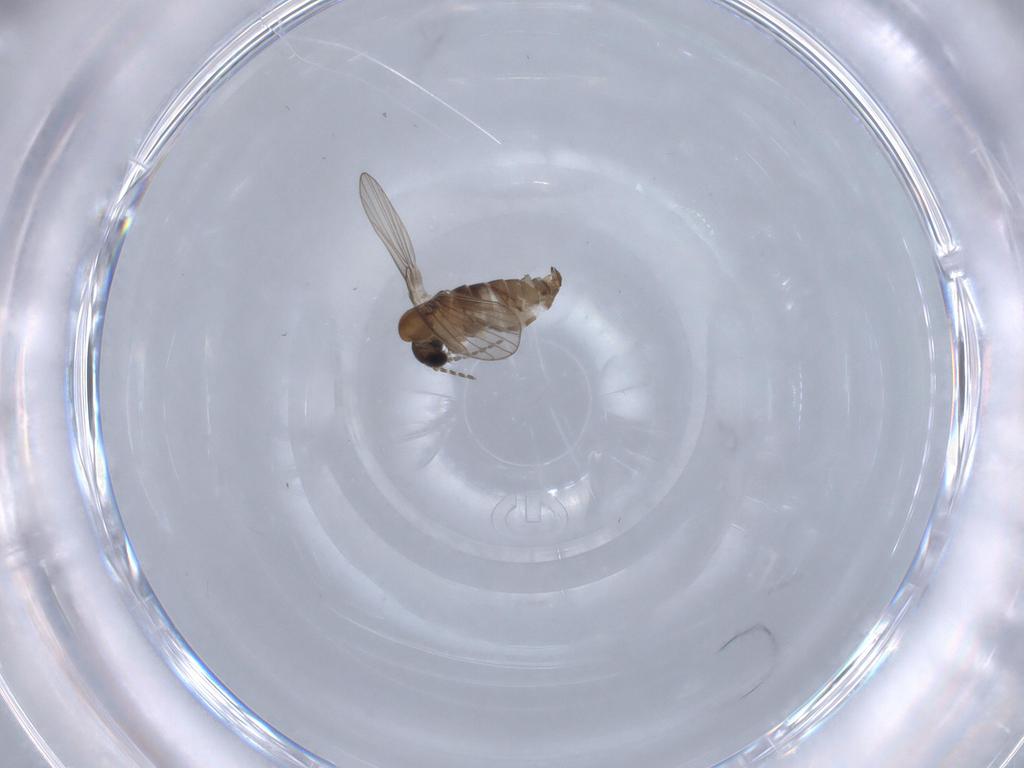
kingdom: Animalia
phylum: Arthropoda
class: Insecta
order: Diptera
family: Psychodidae
